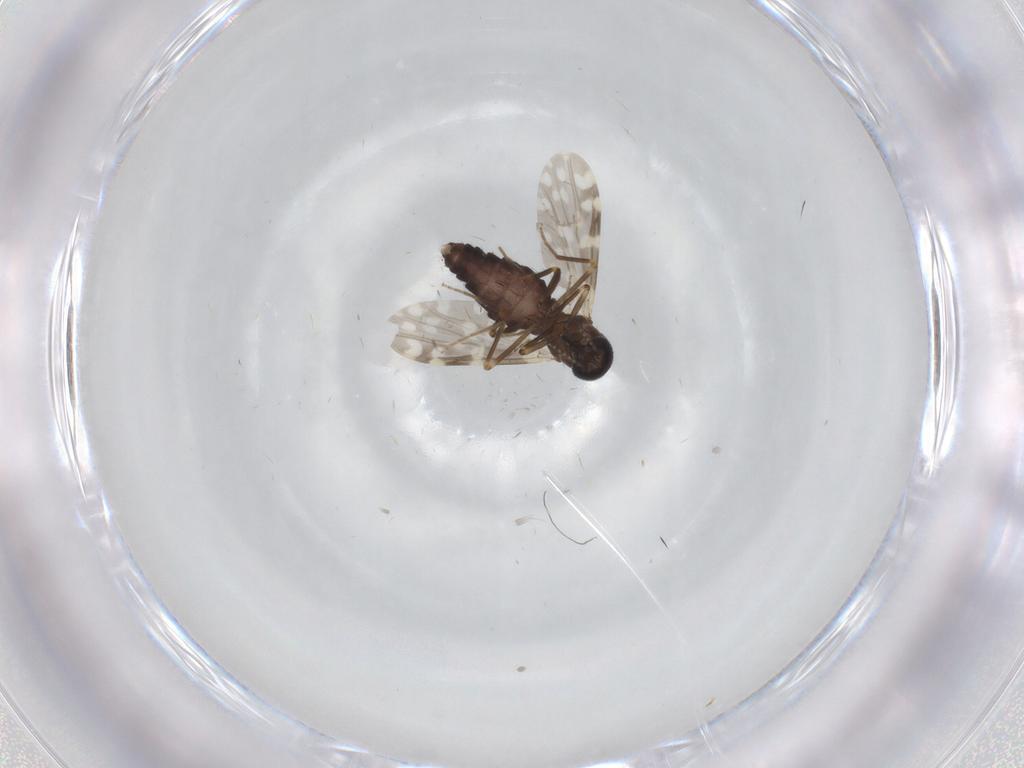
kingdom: Animalia
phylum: Arthropoda
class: Insecta
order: Diptera
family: Ceratopogonidae
